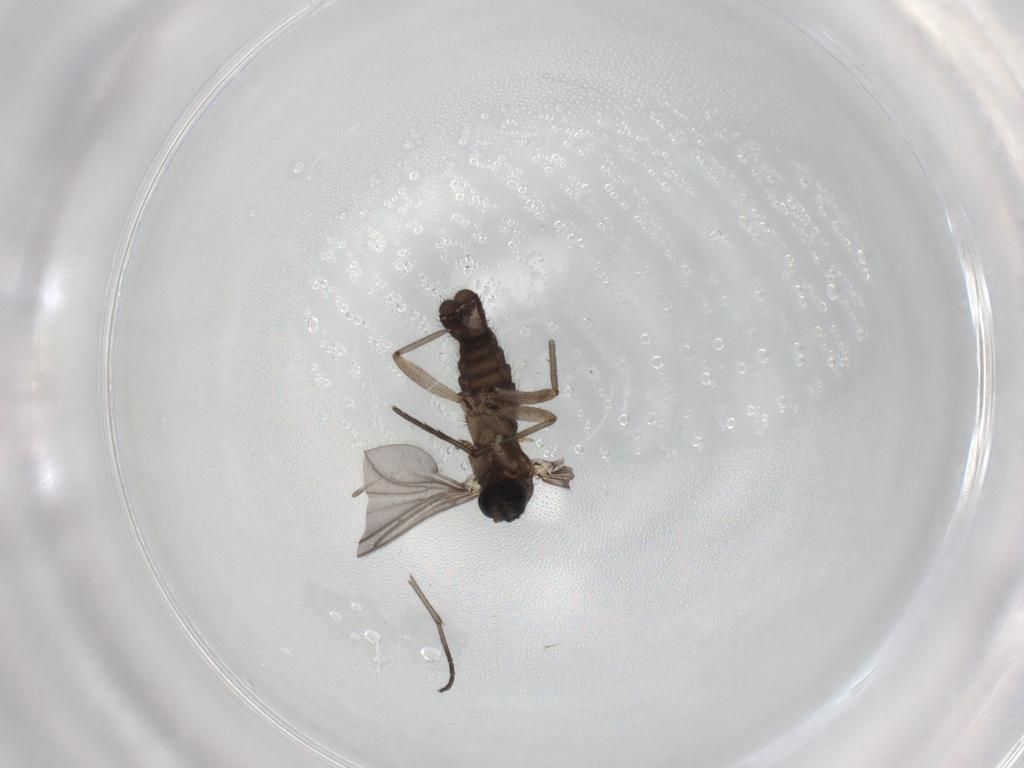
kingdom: Animalia
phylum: Arthropoda
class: Insecta
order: Diptera
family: Sciaridae
